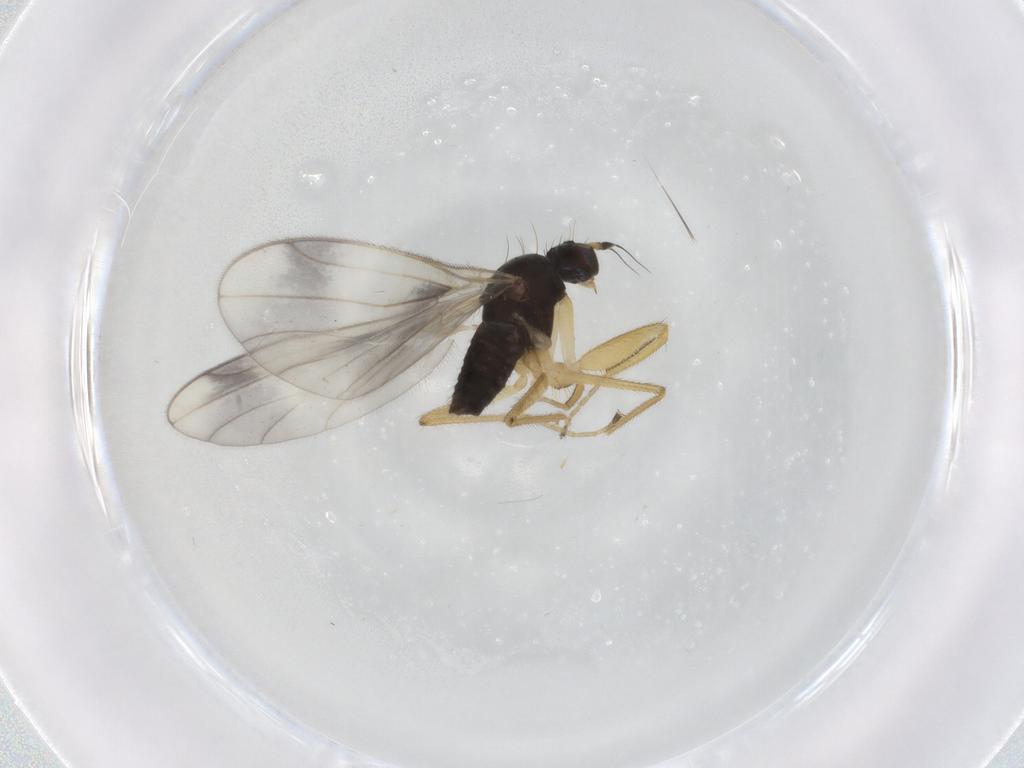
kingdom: Animalia
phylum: Arthropoda
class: Insecta
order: Diptera
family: Chironomidae
